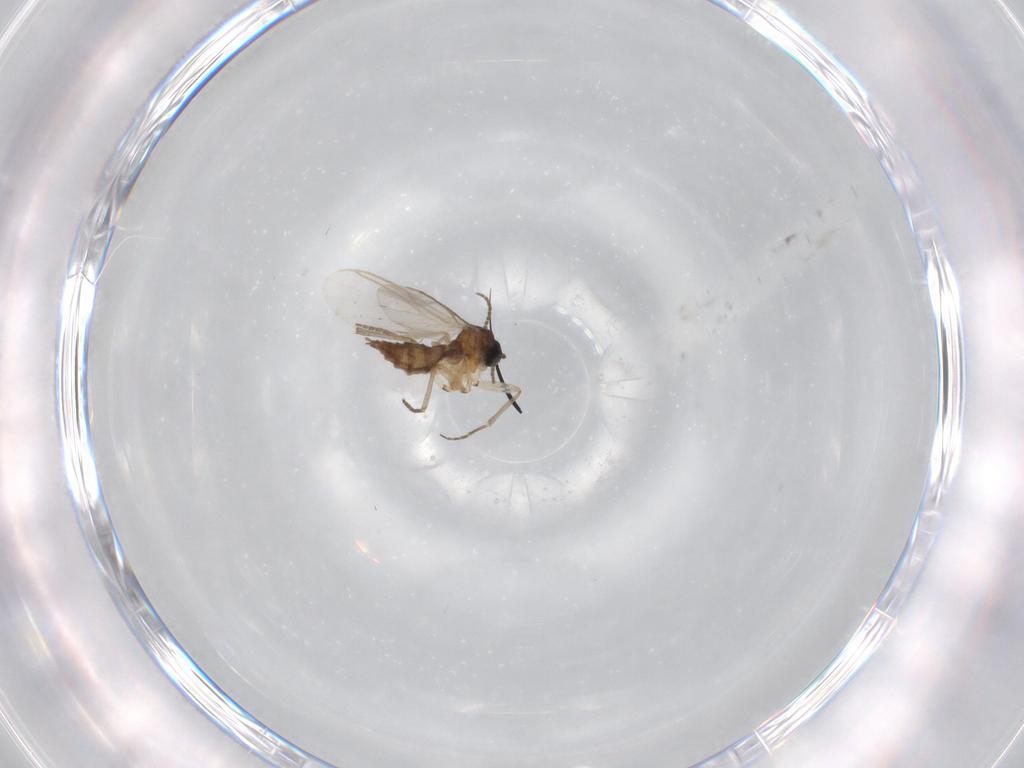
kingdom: Animalia
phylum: Arthropoda
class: Insecta
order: Diptera
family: Sciaridae
